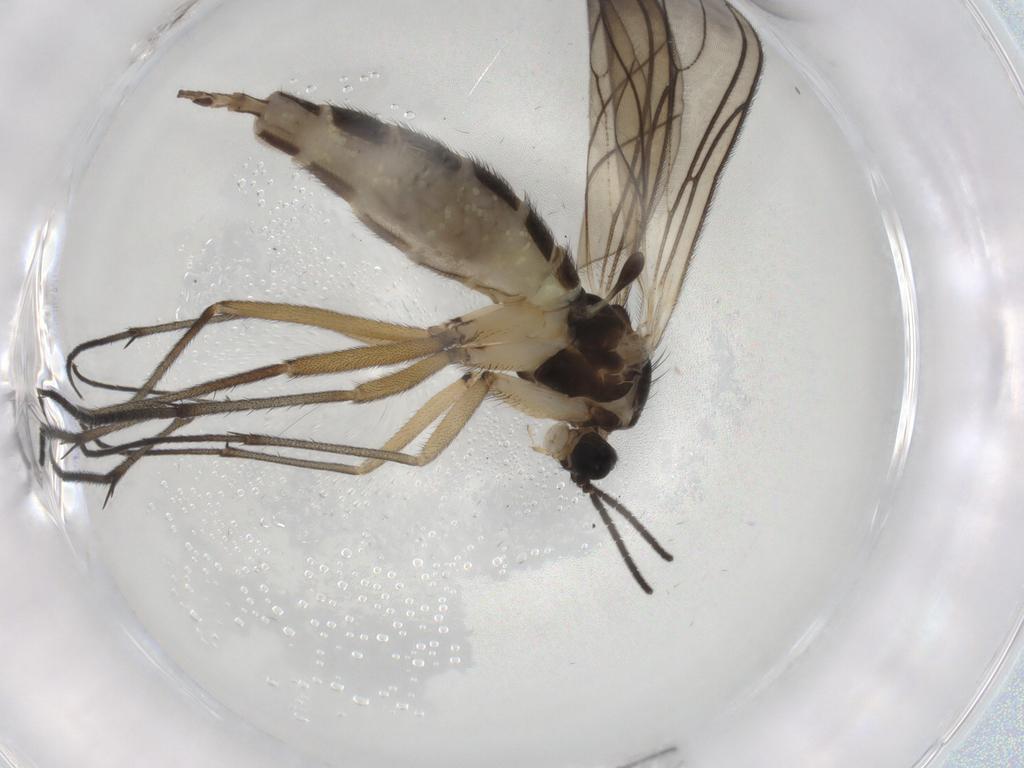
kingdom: Animalia
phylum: Arthropoda
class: Insecta
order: Diptera
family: Sciaridae
